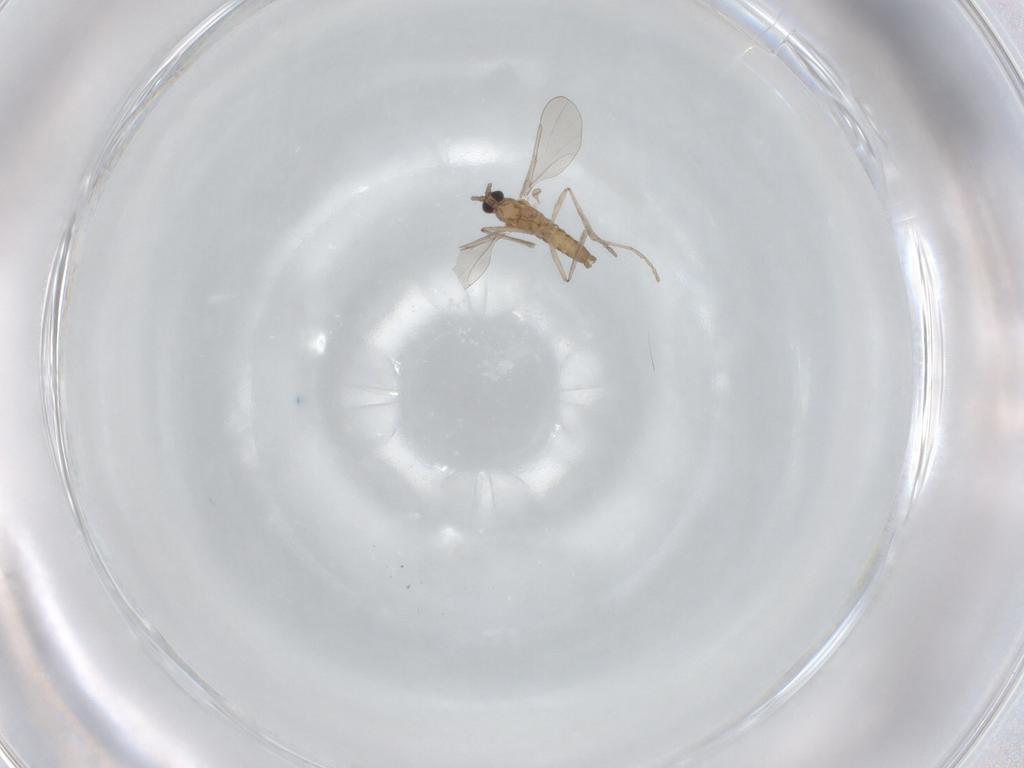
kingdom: Animalia
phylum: Arthropoda
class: Insecta
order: Diptera
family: Cecidomyiidae
